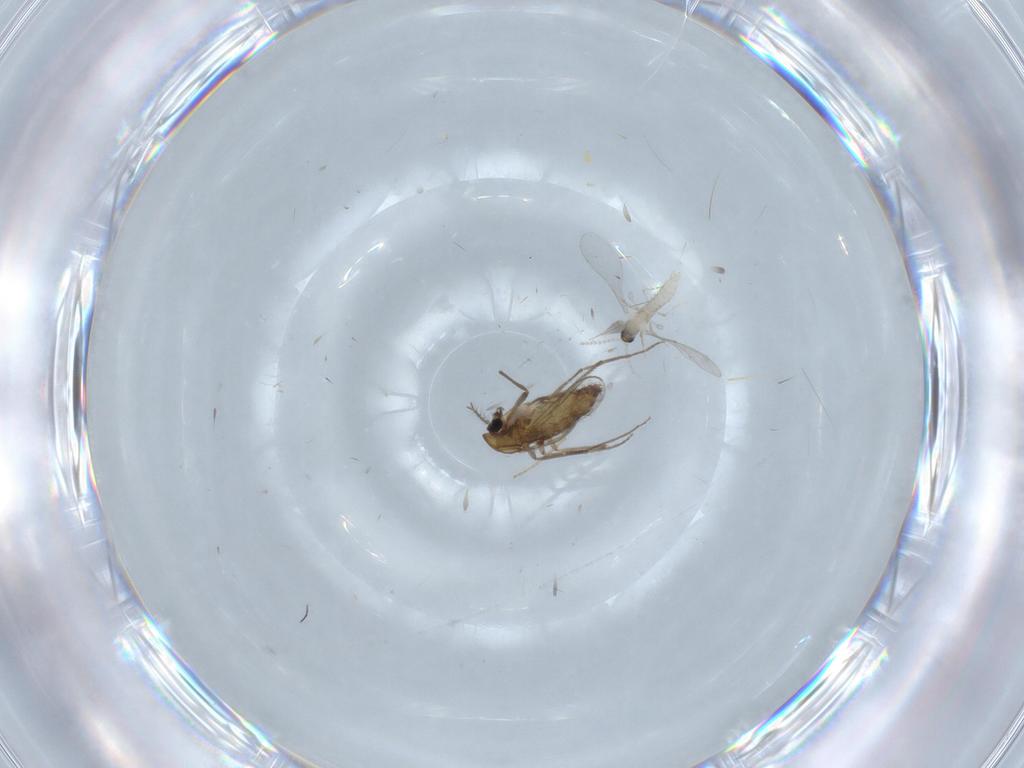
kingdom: Animalia
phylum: Arthropoda
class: Insecta
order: Diptera
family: Chironomidae
